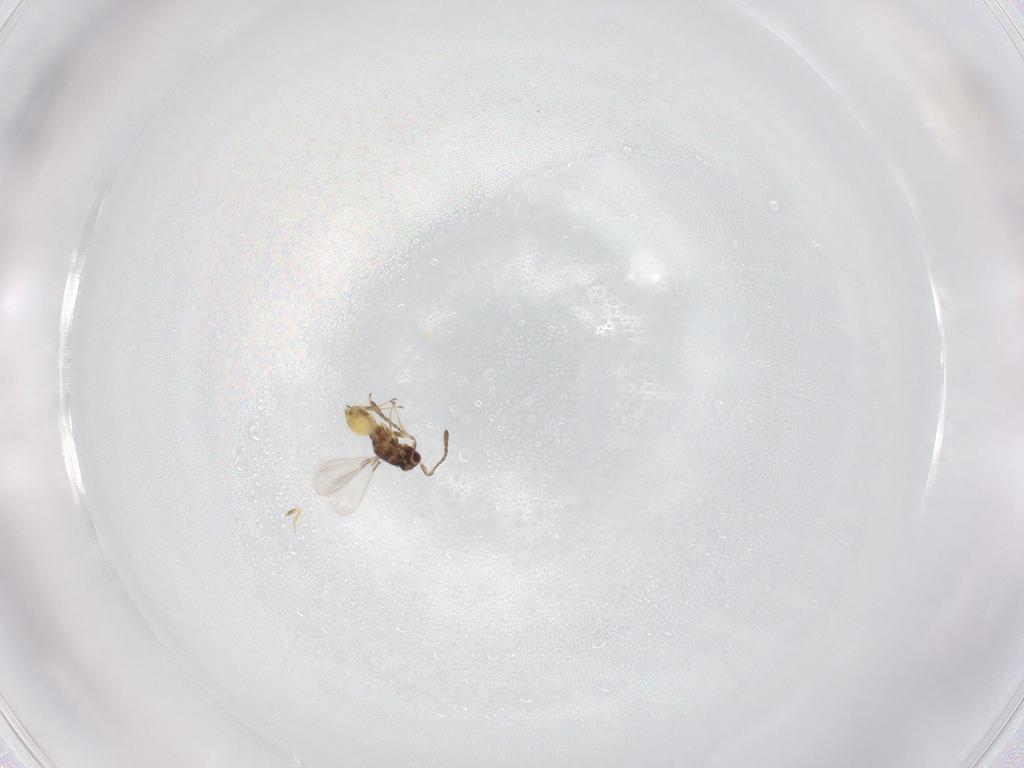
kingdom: Animalia
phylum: Arthropoda
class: Insecta
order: Hymenoptera
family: Mymaridae
